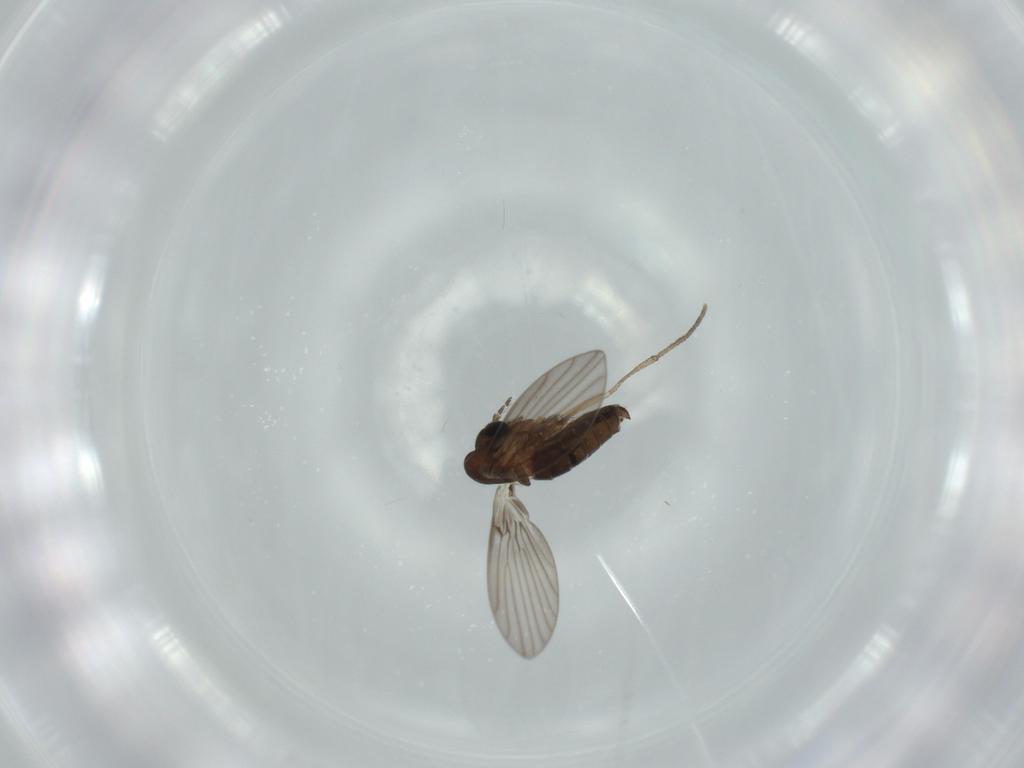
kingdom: Animalia
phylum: Arthropoda
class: Insecta
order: Diptera
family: Psychodidae
